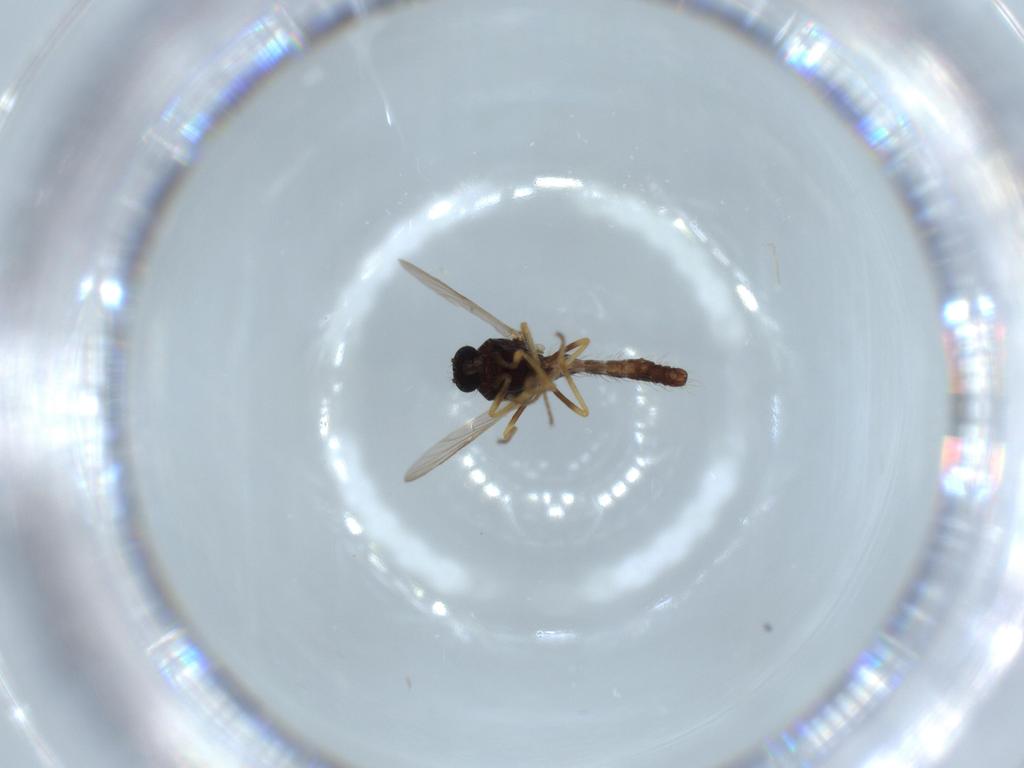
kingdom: Animalia
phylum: Arthropoda
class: Insecta
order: Diptera
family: Ceratopogonidae
